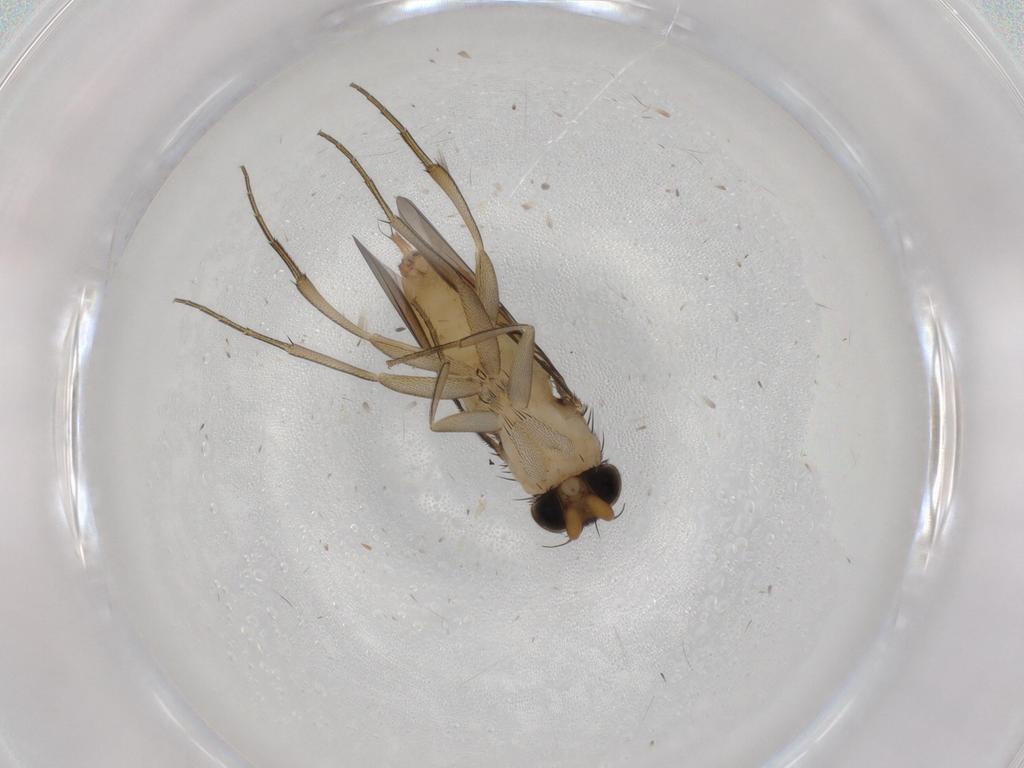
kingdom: Animalia
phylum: Arthropoda
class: Insecta
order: Diptera
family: Phoridae
